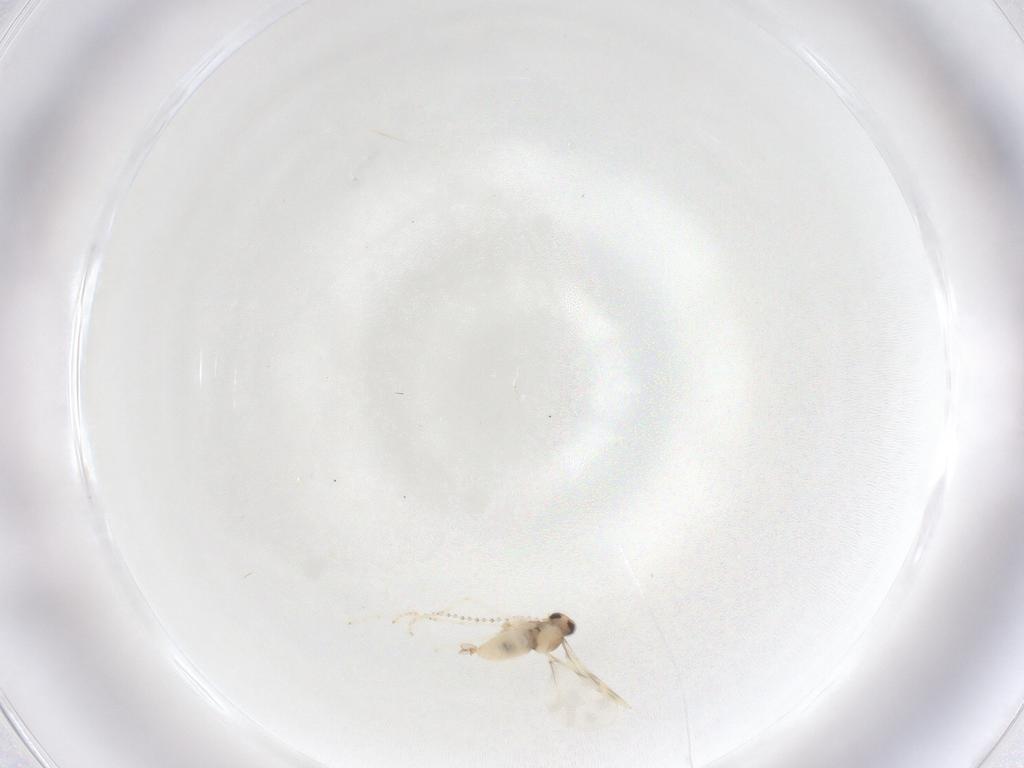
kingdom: Animalia
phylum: Arthropoda
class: Insecta
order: Diptera
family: Cecidomyiidae
